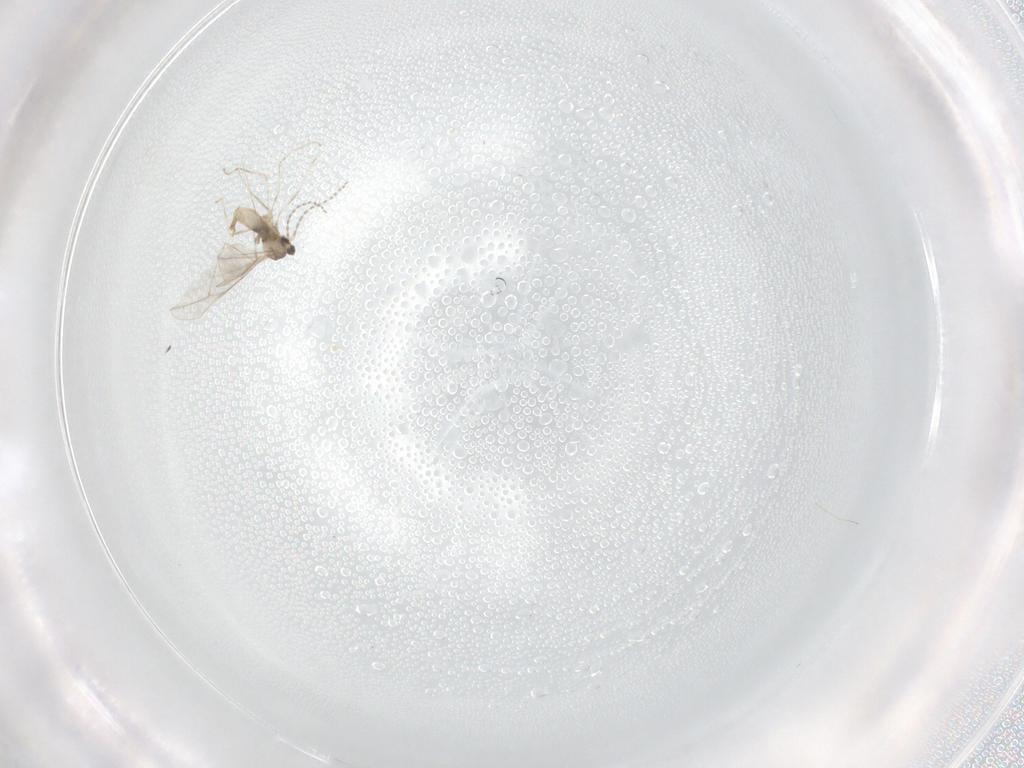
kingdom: Animalia
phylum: Arthropoda
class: Insecta
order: Diptera
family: Cecidomyiidae
